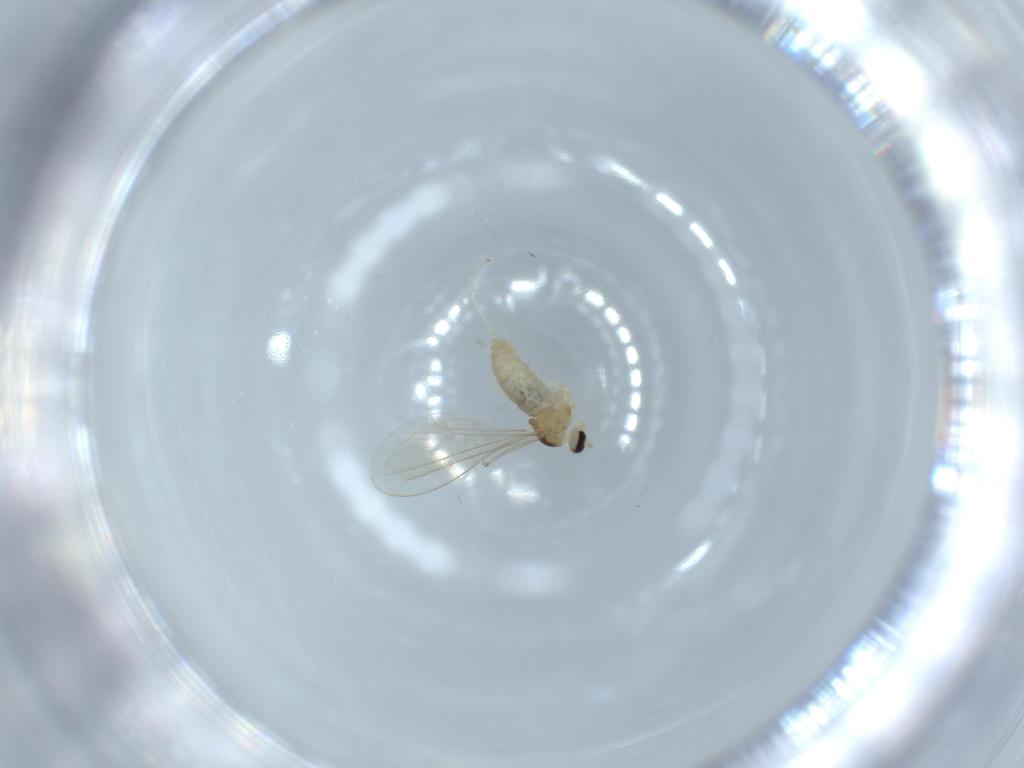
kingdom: Animalia
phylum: Arthropoda
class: Insecta
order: Diptera
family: Cecidomyiidae
